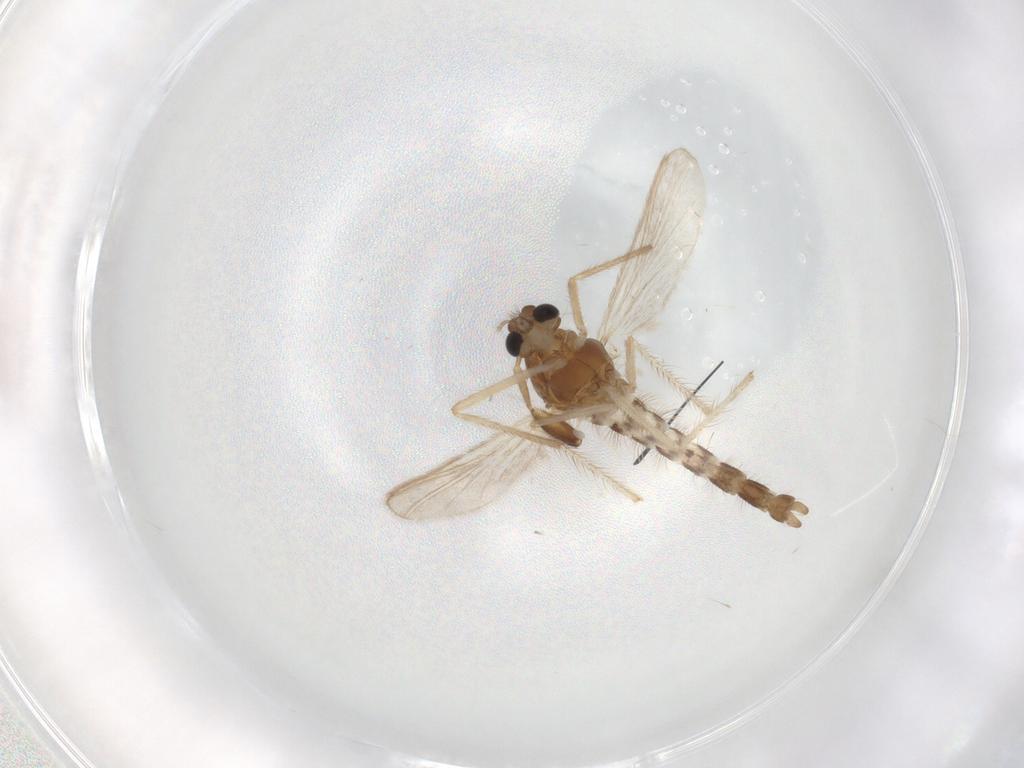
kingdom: Animalia
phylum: Arthropoda
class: Insecta
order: Diptera
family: Chironomidae
